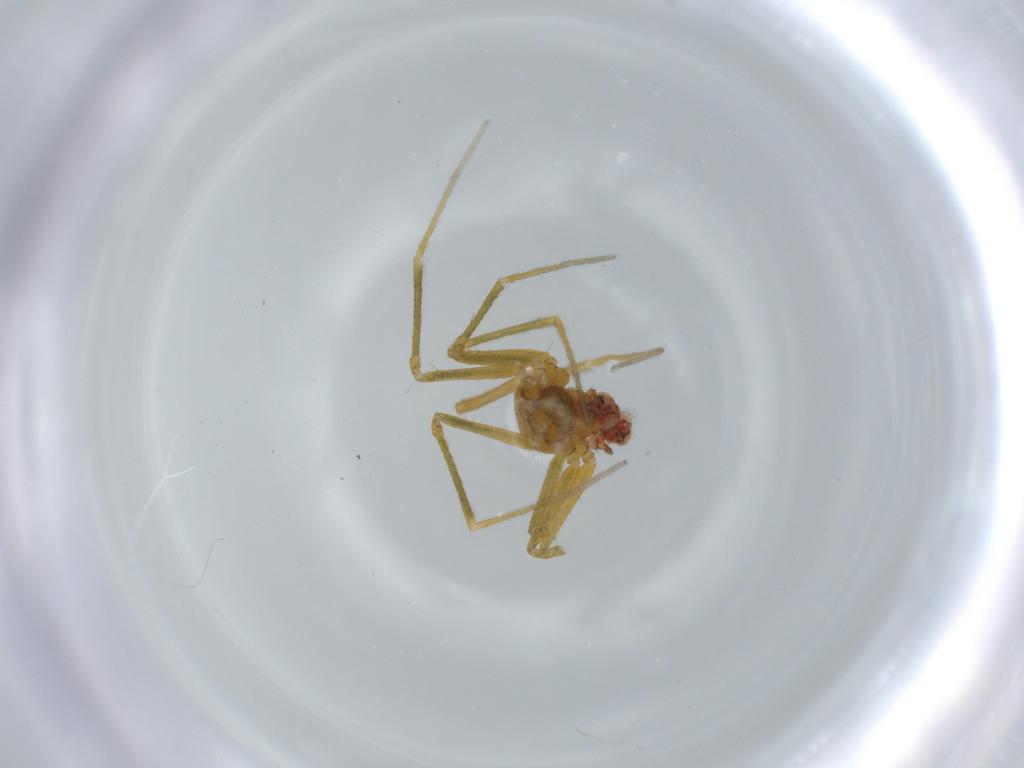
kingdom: Animalia
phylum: Arthropoda
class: Arachnida
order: Araneae
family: Linyphiidae
